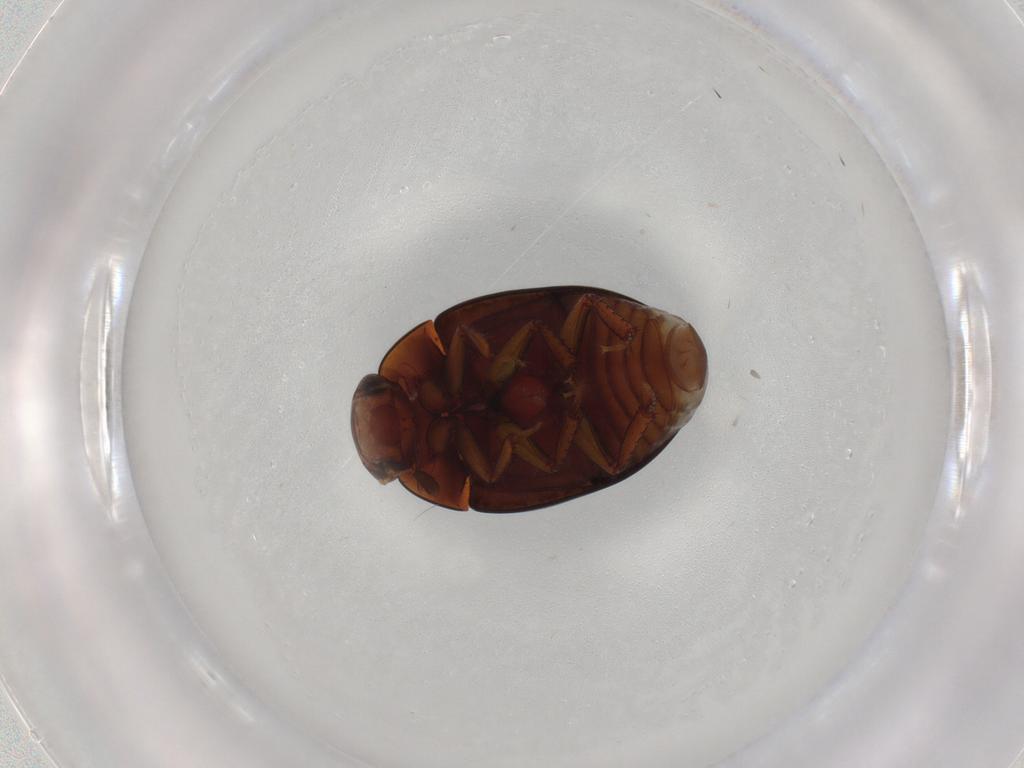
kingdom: Animalia
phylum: Arthropoda
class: Insecta
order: Coleoptera
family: Hydrophilidae
